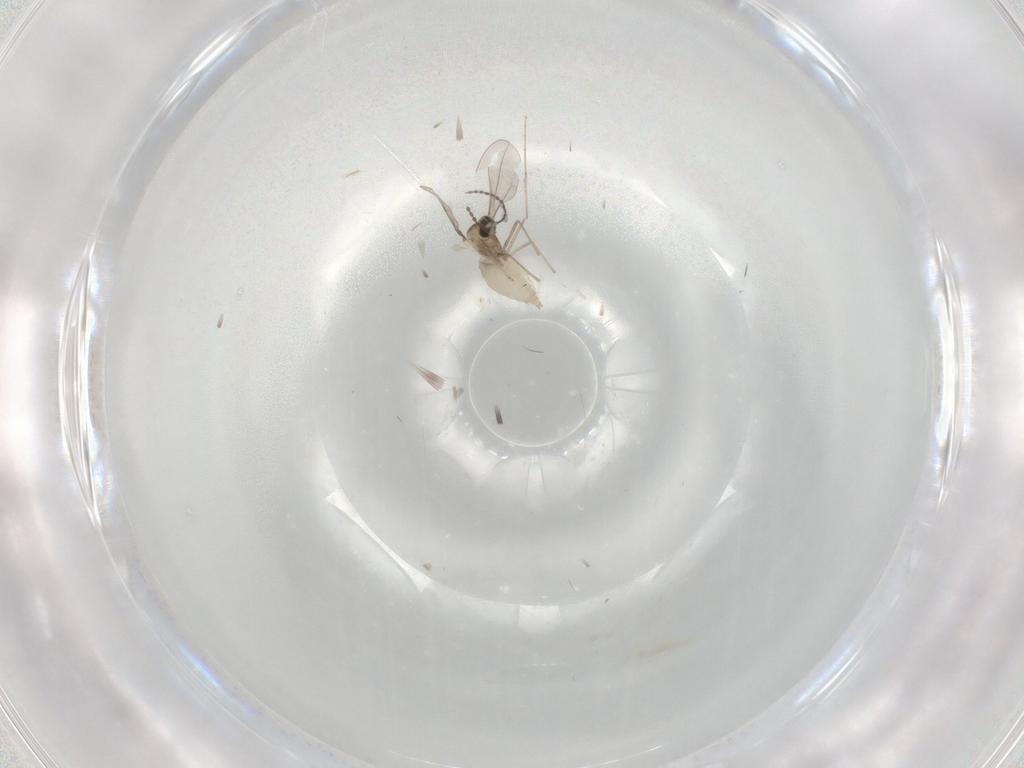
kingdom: Animalia
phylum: Arthropoda
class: Insecta
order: Diptera
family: Cecidomyiidae
